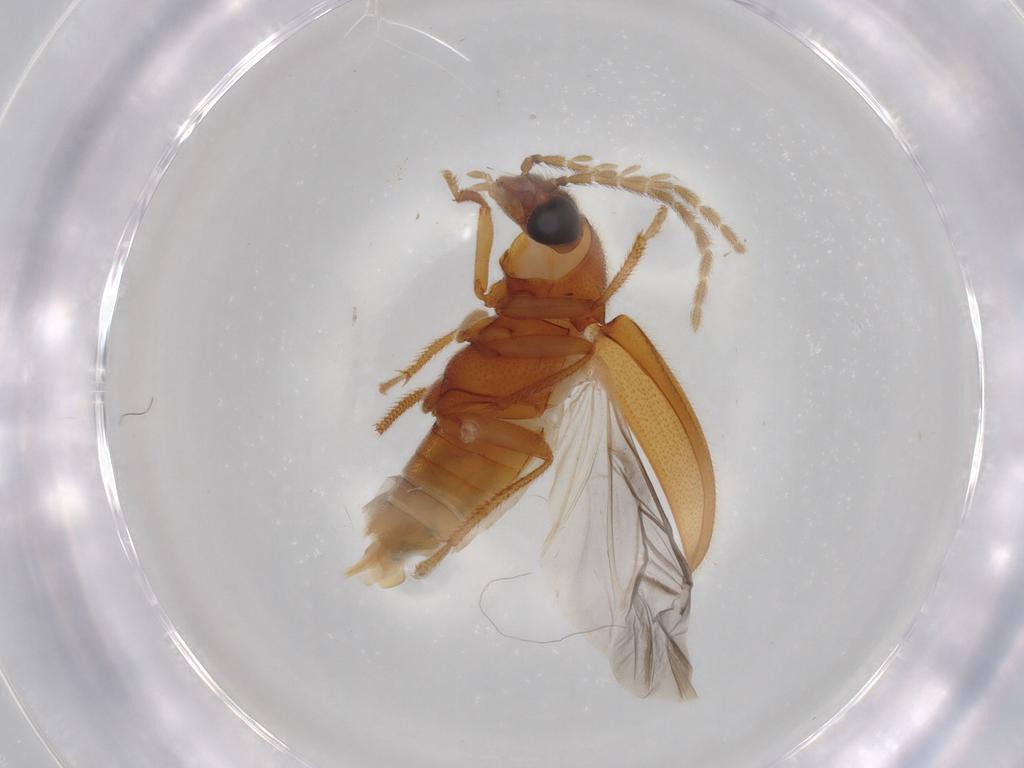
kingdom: Animalia
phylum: Arthropoda
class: Insecta
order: Coleoptera
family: Ptilodactylidae
